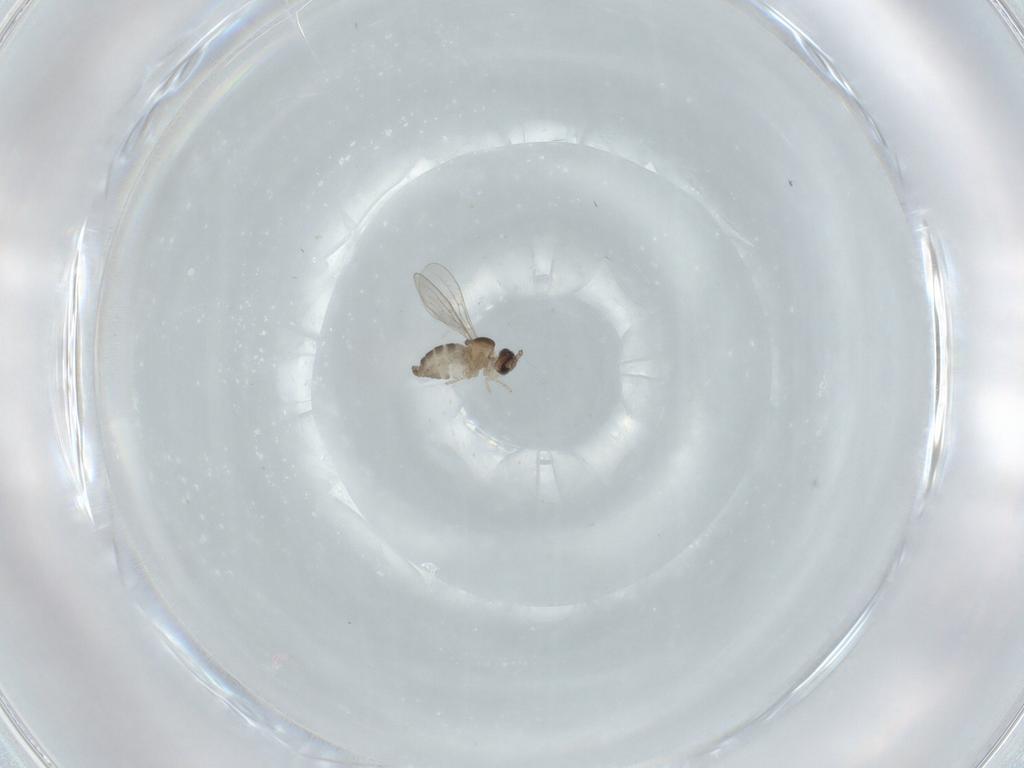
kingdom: Animalia
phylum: Arthropoda
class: Insecta
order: Diptera
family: Cecidomyiidae
